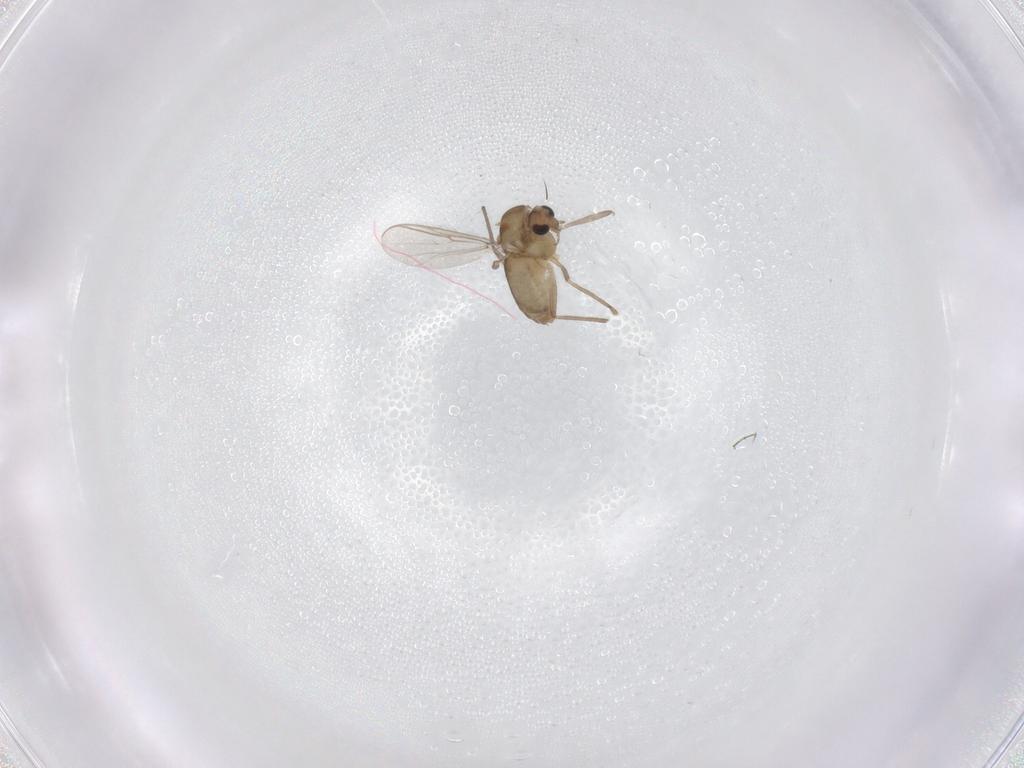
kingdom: Animalia
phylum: Arthropoda
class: Insecta
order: Diptera
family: Chironomidae
